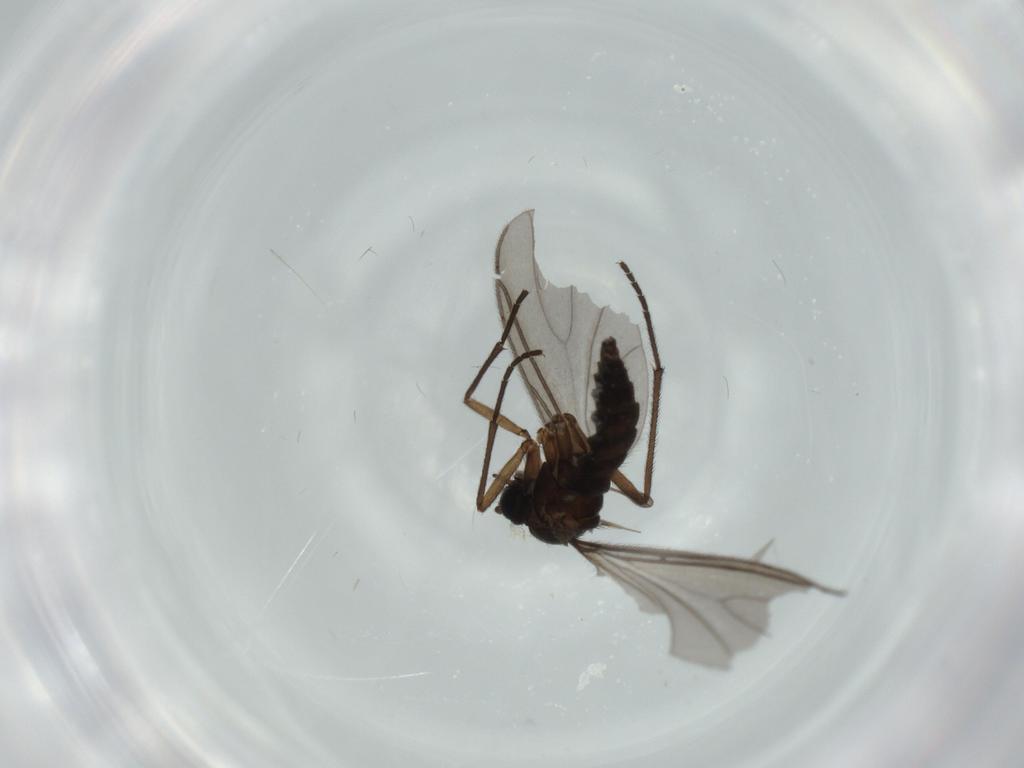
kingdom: Animalia
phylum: Arthropoda
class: Insecta
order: Diptera
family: Sciaridae
